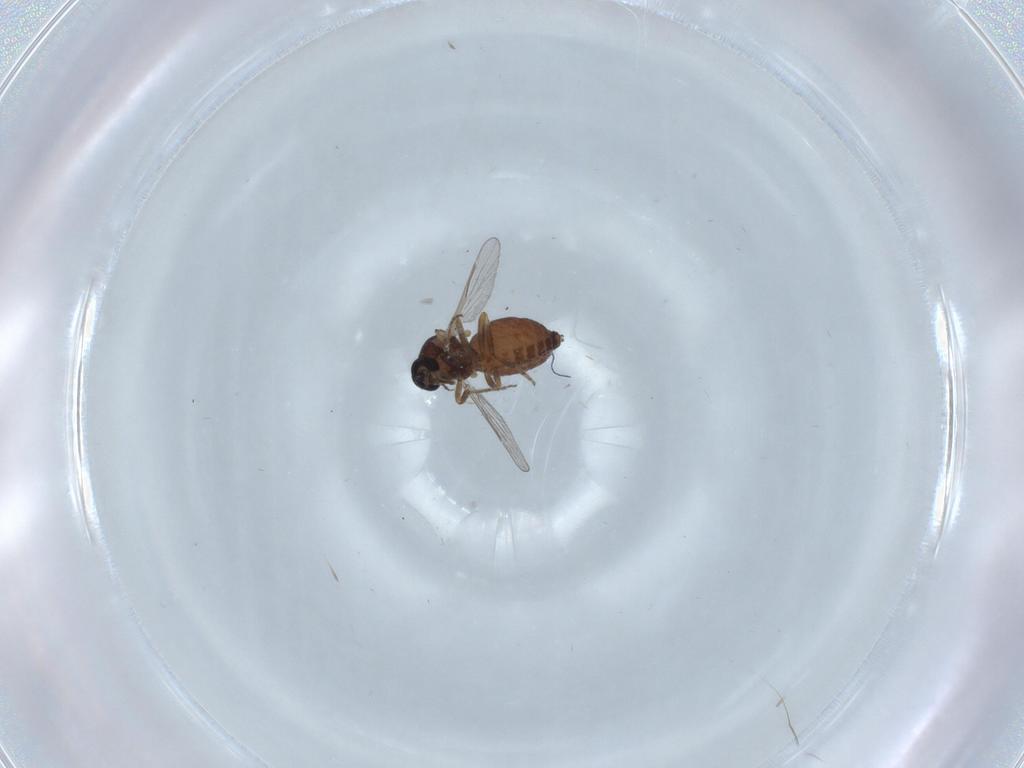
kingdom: Animalia
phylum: Arthropoda
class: Insecta
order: Diptera
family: Ceratopogonidae
